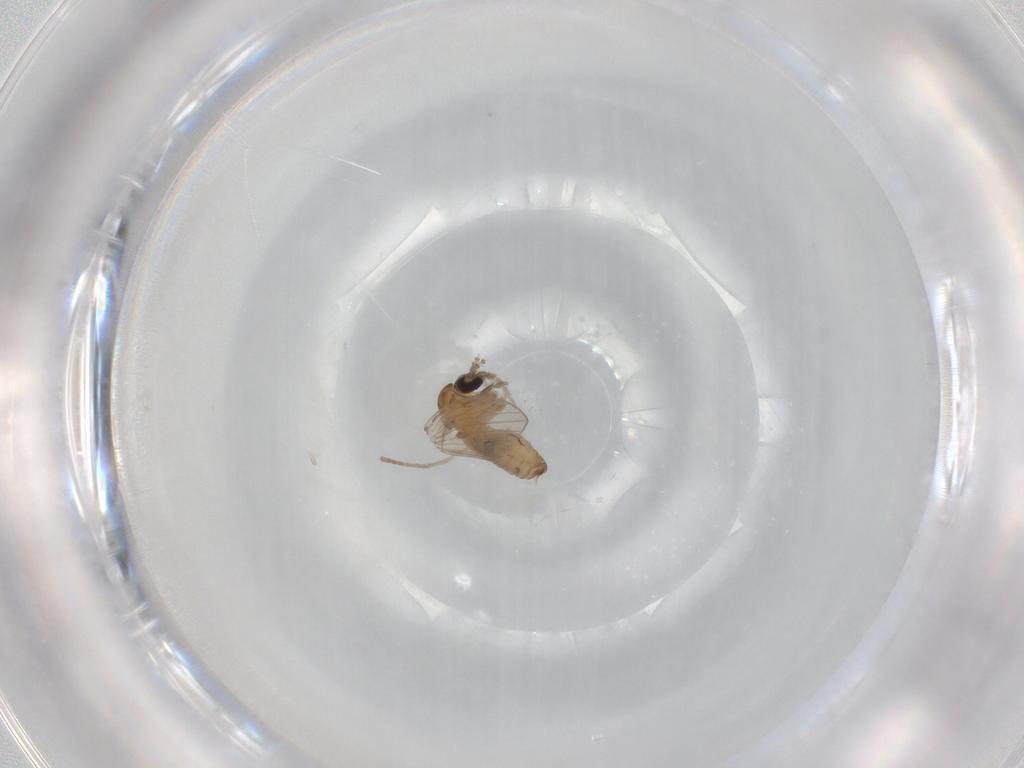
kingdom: Animalia
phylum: Arthropoda
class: Insecta
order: Diptera
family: Psychodidae
